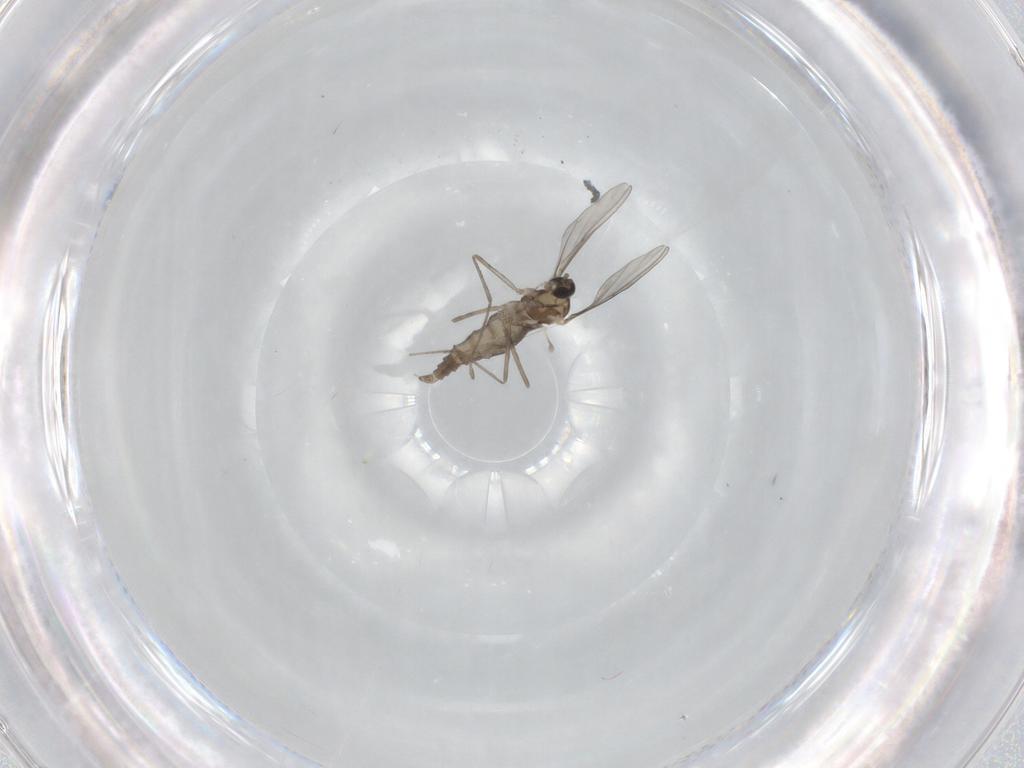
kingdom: Animalia
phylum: Arthropoda
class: Insecta
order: Diptera
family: Cecidomyiidae
